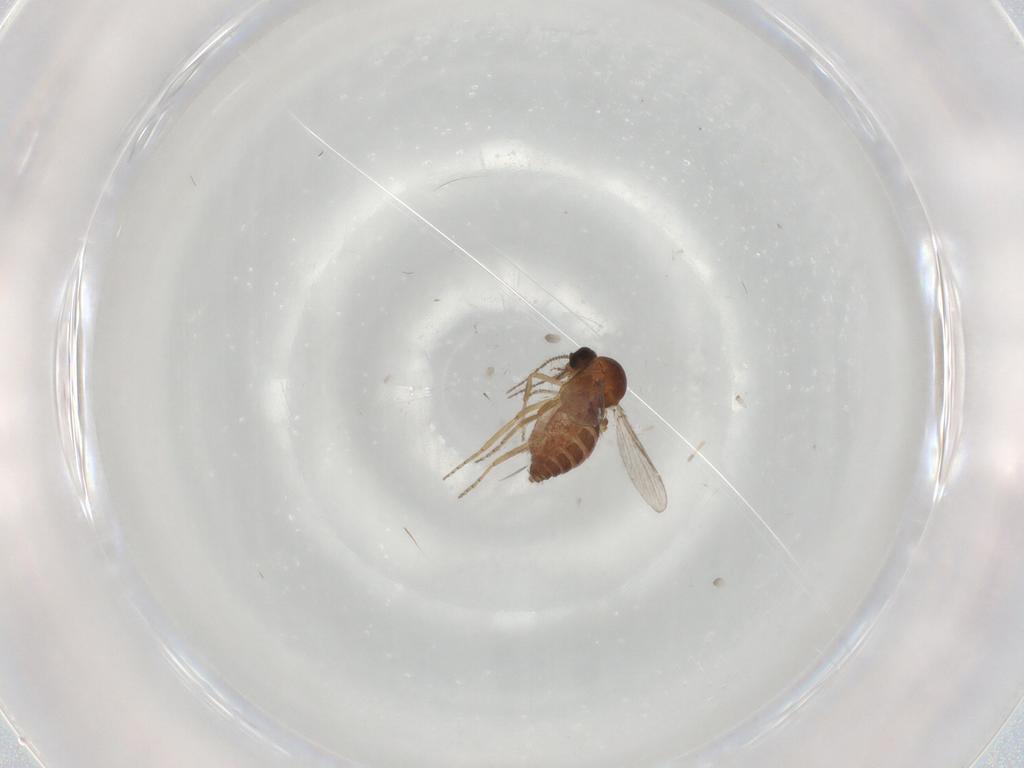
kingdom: Animalia
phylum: Arthropoda
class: Insecta
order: Diptera
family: Ceratopogonidae
